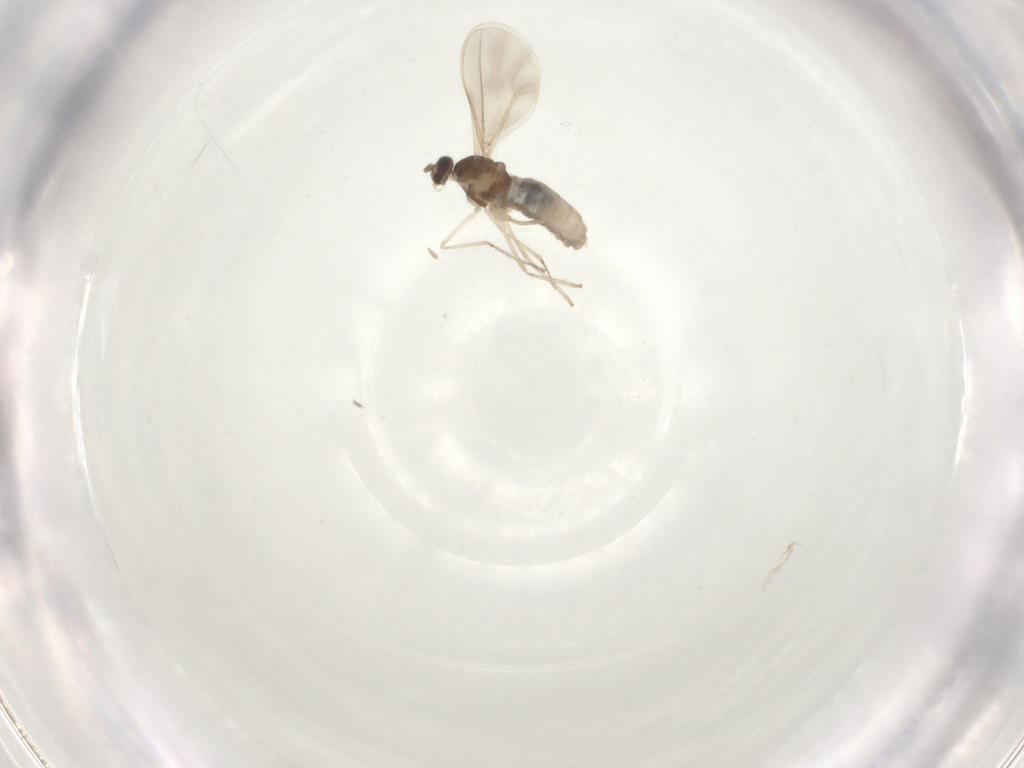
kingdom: Animalia
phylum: Arthropoda
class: Insecta
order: Diptera
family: Cecidomyiidae
